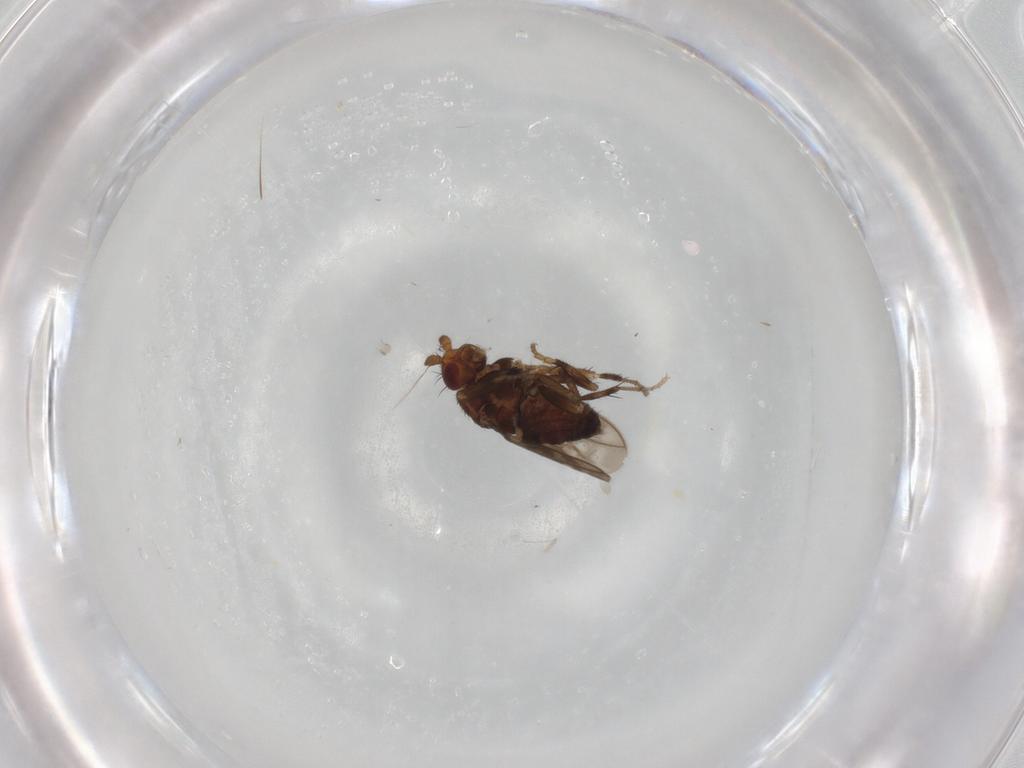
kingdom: Animalia
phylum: Arthropoda
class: Insecta
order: Diptera
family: Sphaeroceridae
